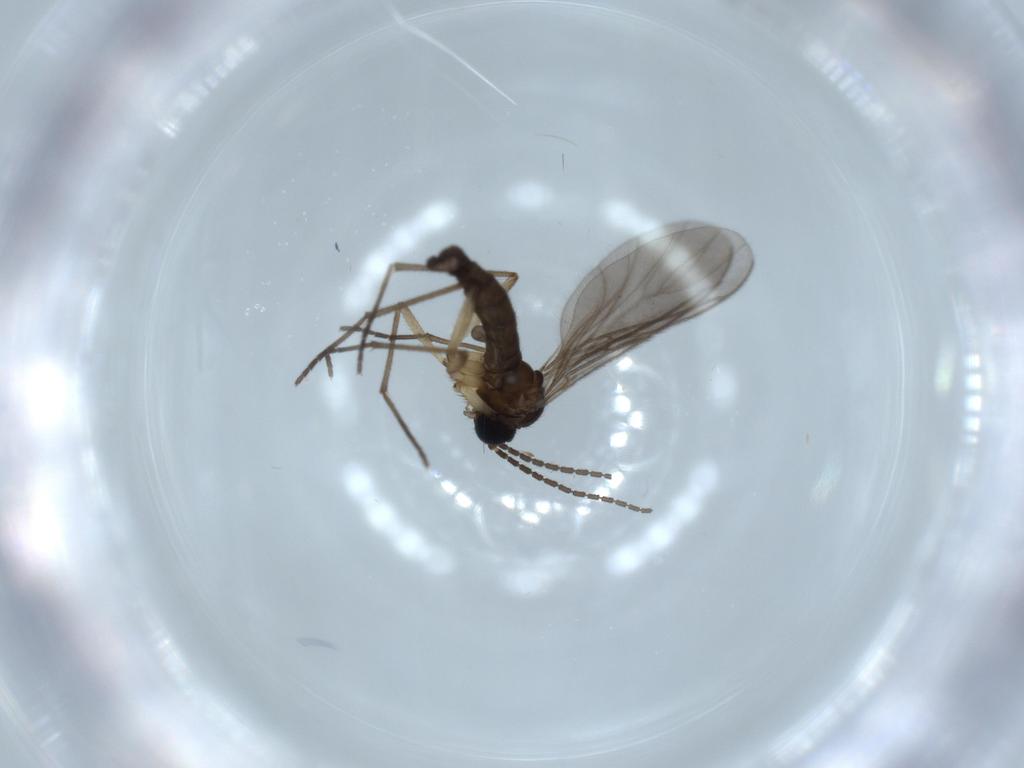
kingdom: Animalia
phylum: Arthropoda
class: Insecta
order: Diptera
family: Sciaridae
